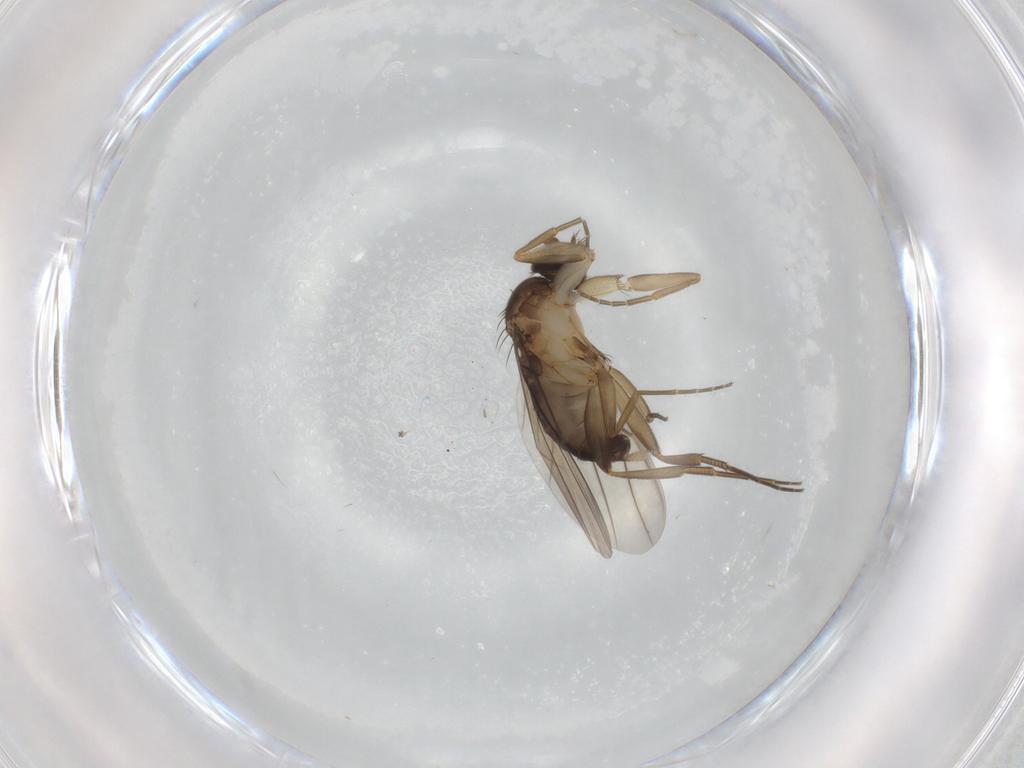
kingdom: Animalia
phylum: Arthropoda
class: Insecta
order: Diptera
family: Phoridae
